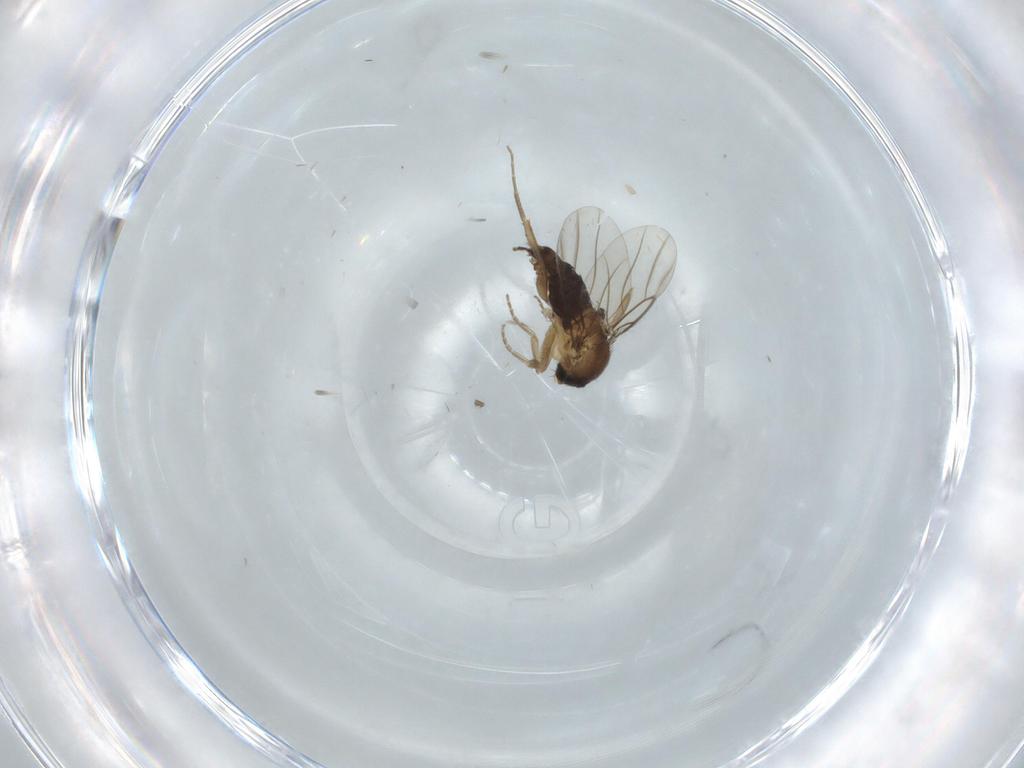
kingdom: Animalia
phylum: Arthropoda
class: Insecta
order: Diptera
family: Phoridae
